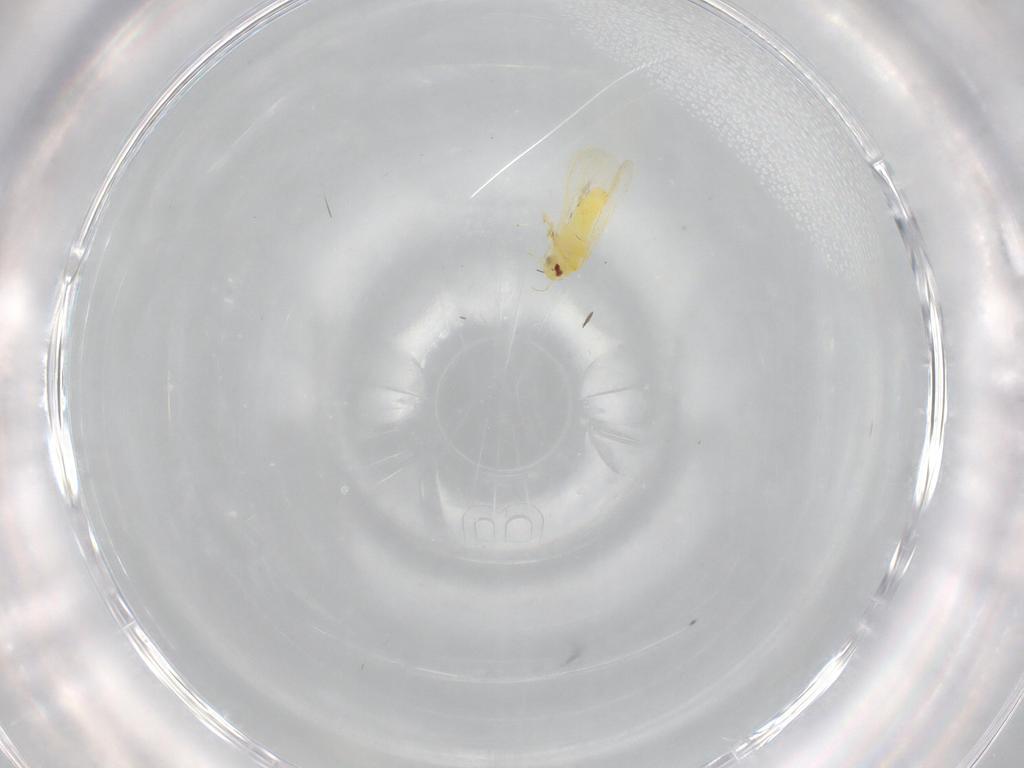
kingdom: Animalia
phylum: Arthropoda
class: Insecta
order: Hemiptera
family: Aleyrodidae
